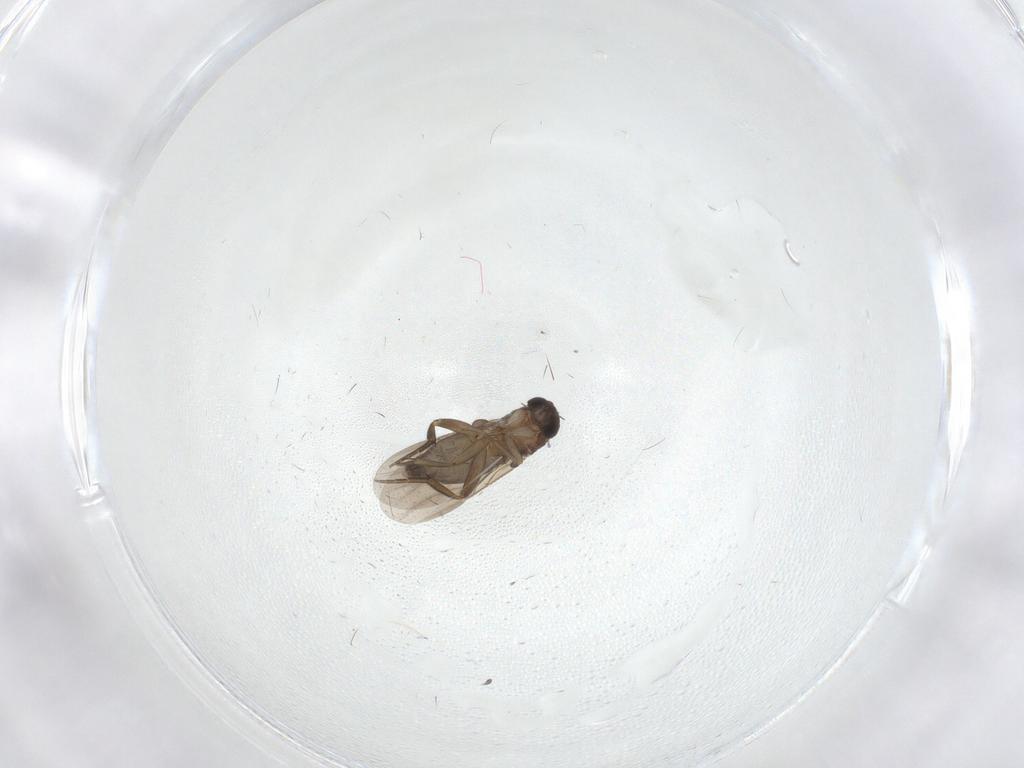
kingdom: Animalia
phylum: Arthropoda
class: Insecta
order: Diptera
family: Phoridae
